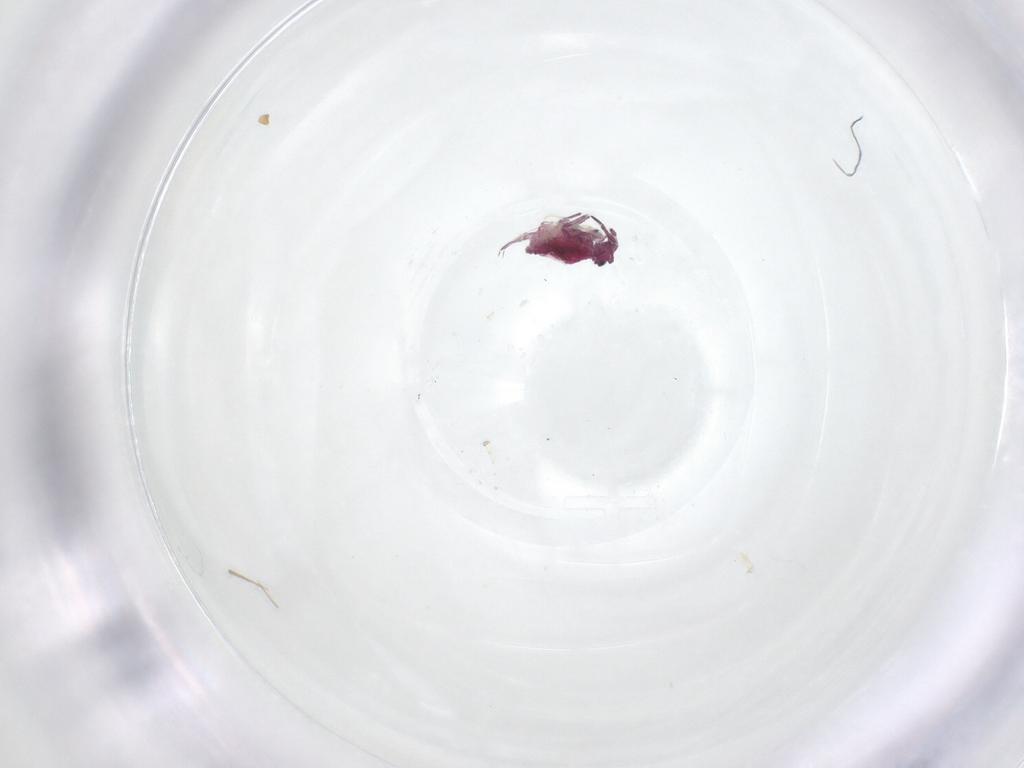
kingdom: Animalia
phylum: Arthropoda
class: Collembola
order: Symphypleona
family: Sminthuridae
